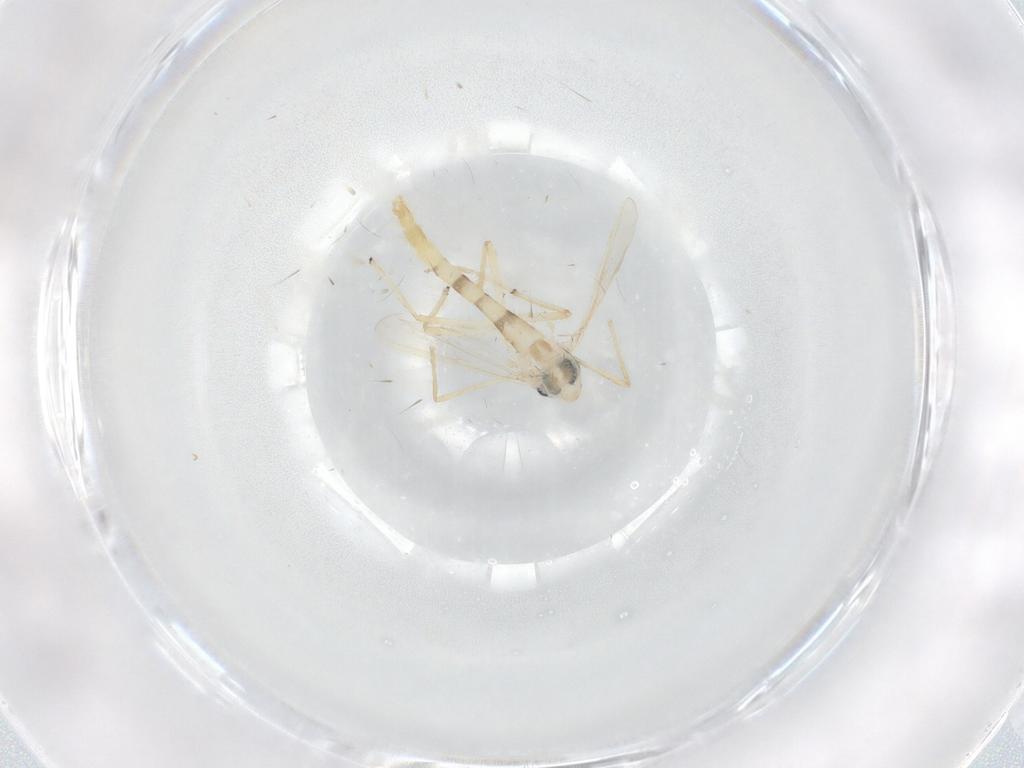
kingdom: Animalia
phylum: Arthropoda
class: Insecta
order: Diptera
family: Chironomidae
